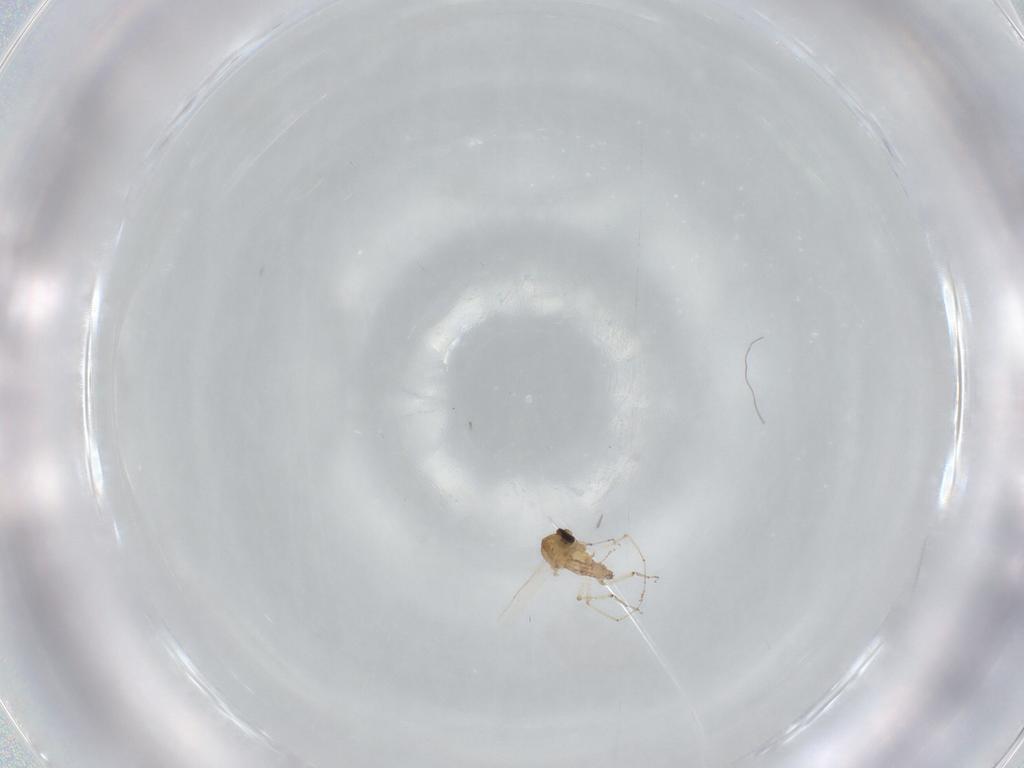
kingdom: Animalia
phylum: Arthropoda
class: Insecta
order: Diptera
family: Ceratopogonidae
